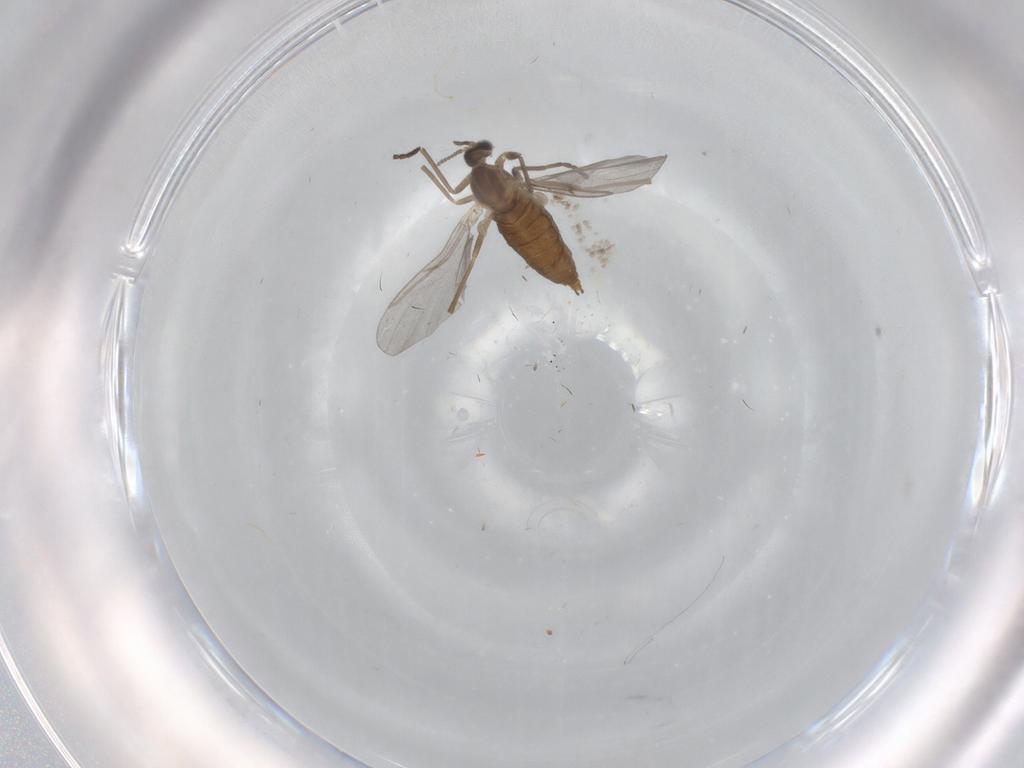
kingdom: Animalia
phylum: Arthropoda
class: Insecta
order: Diptera
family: Cecidomyiidae
